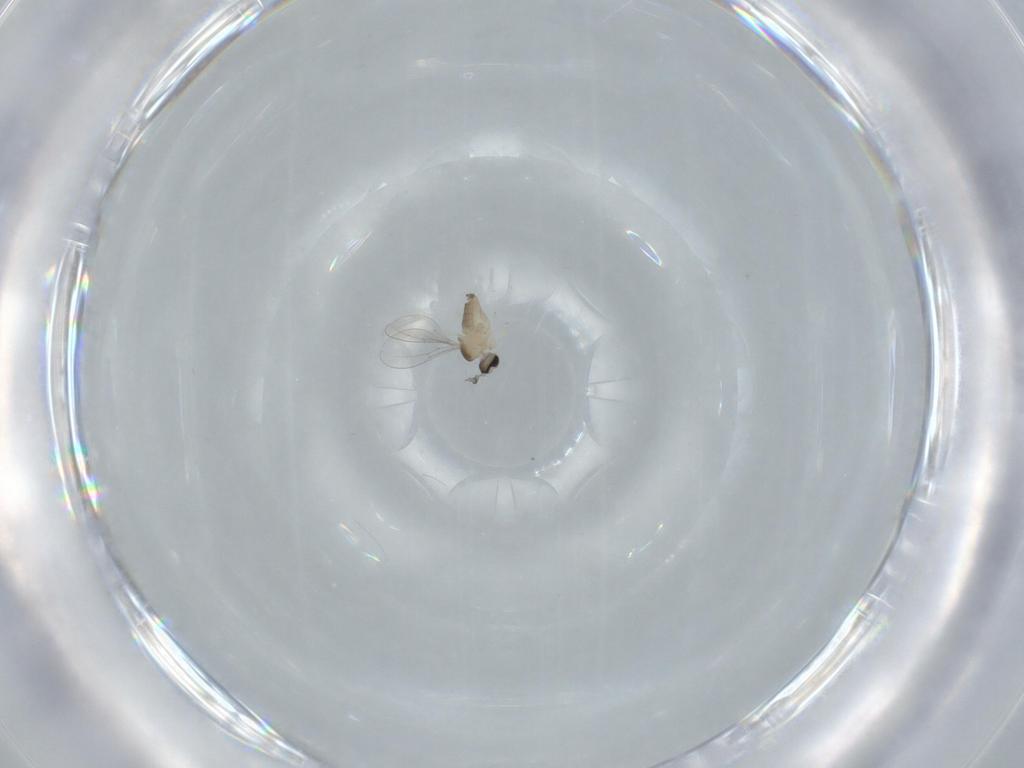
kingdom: Animalia
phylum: Arthropoda
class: Insecta
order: Diptera
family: Cecidomyiidae
